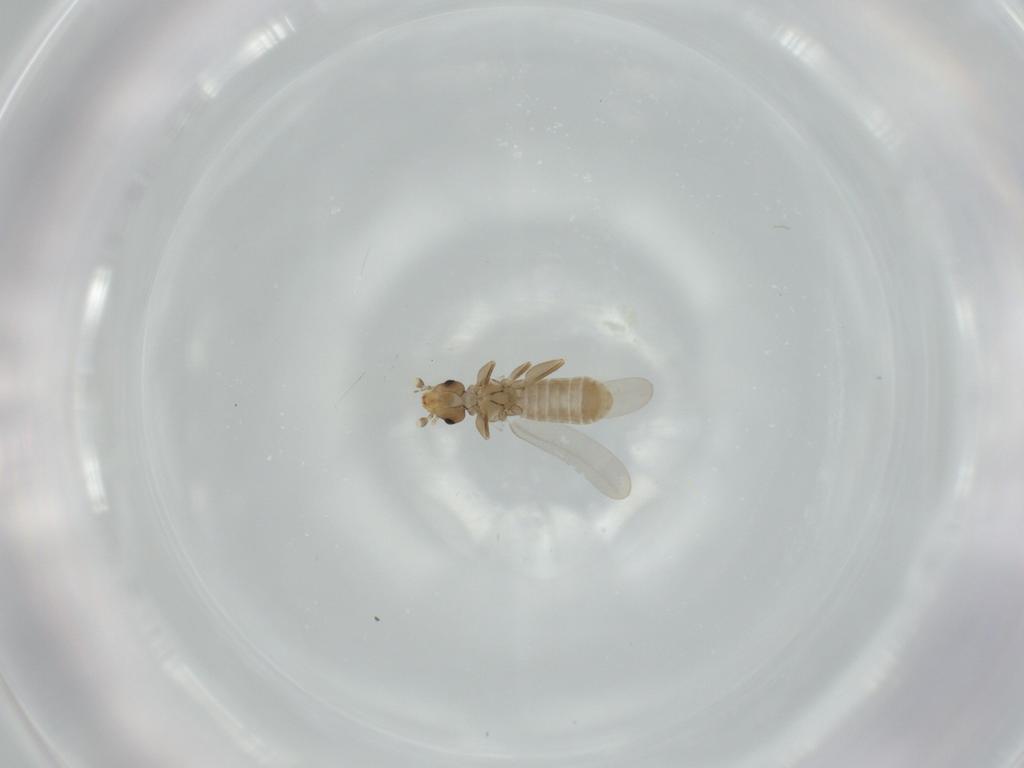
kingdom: Animalia
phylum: Arthropoda
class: Insecta
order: Psocodea
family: Liposcelididae
